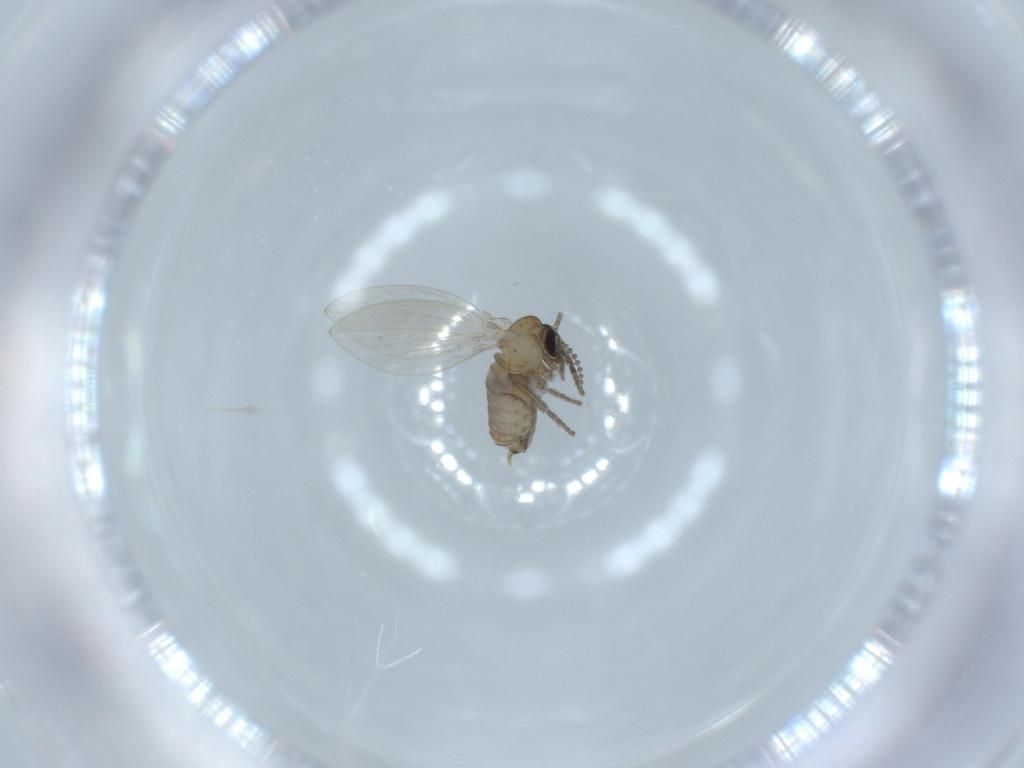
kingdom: Animalia
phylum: Arthropoda
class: Insecta
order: Diptera
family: Psychodidae
